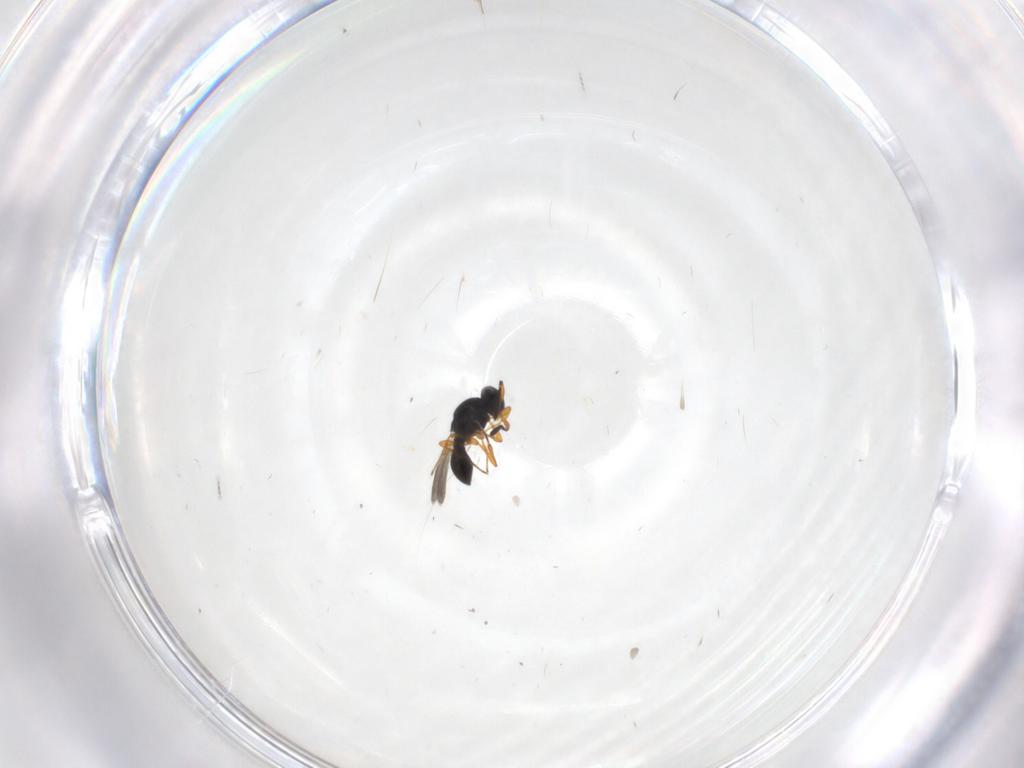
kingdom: Animalia
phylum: Arthropoda
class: Insecta
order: Hymenoptera
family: Platygastridae
